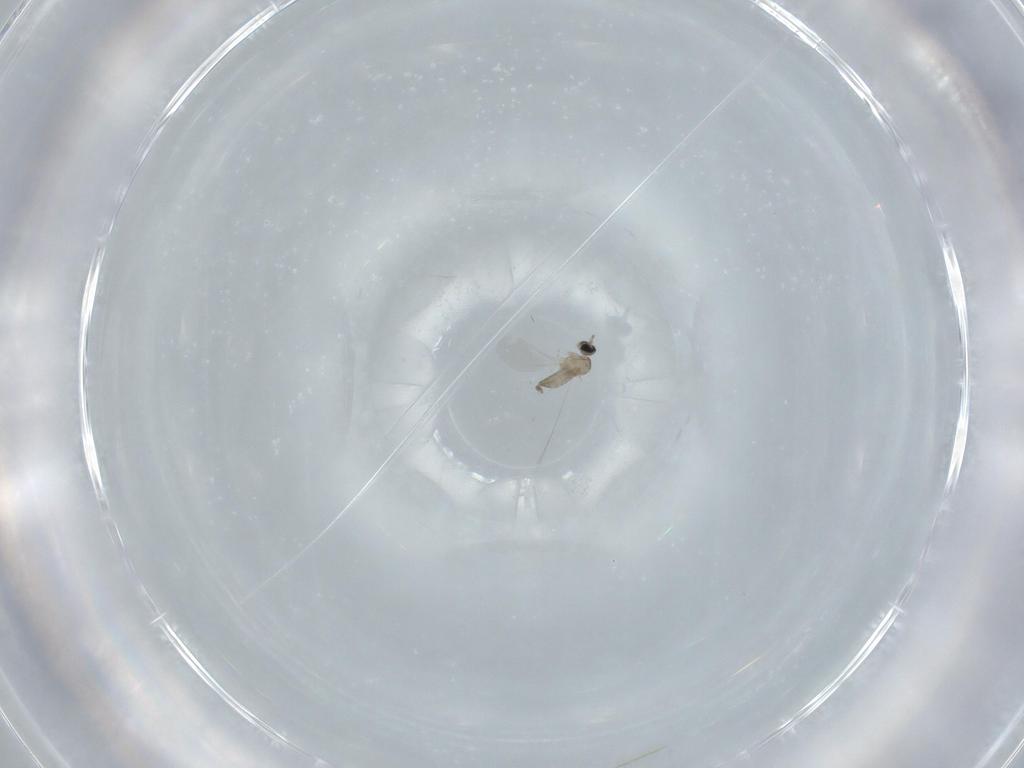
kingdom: Animalia
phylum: Arthropoda
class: Insecta
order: Diptera
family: Cecidomyiidae
